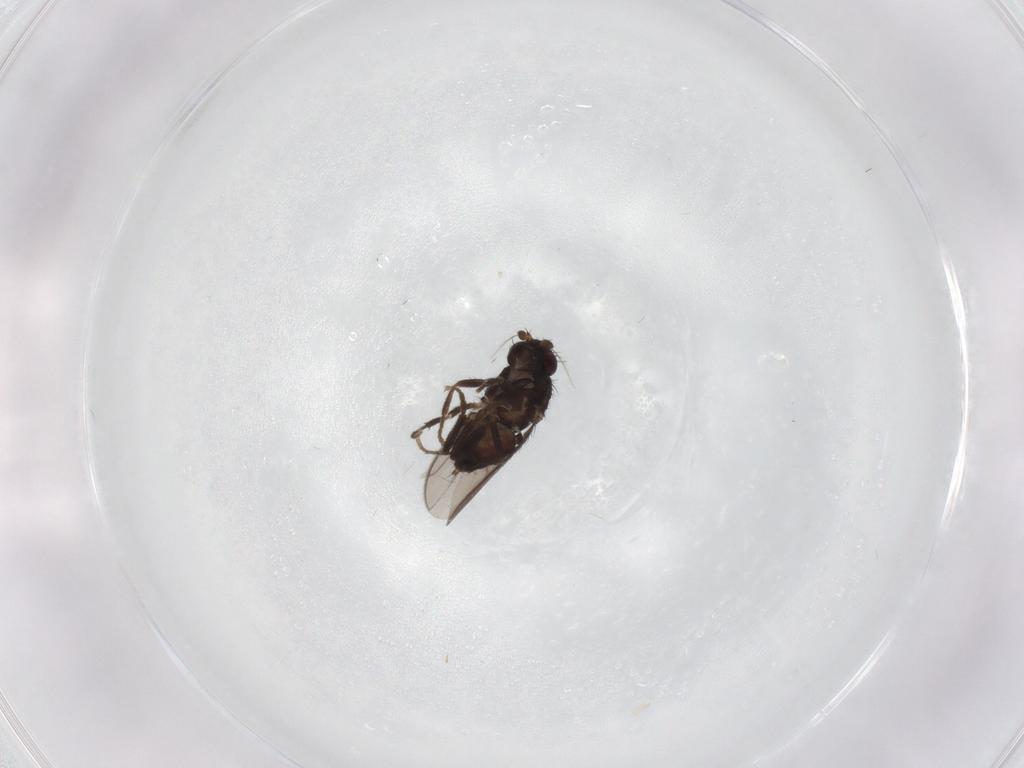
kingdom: Animalia
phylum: Arthropoda
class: Insecta
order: Diptera
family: Sphaeroceridae
